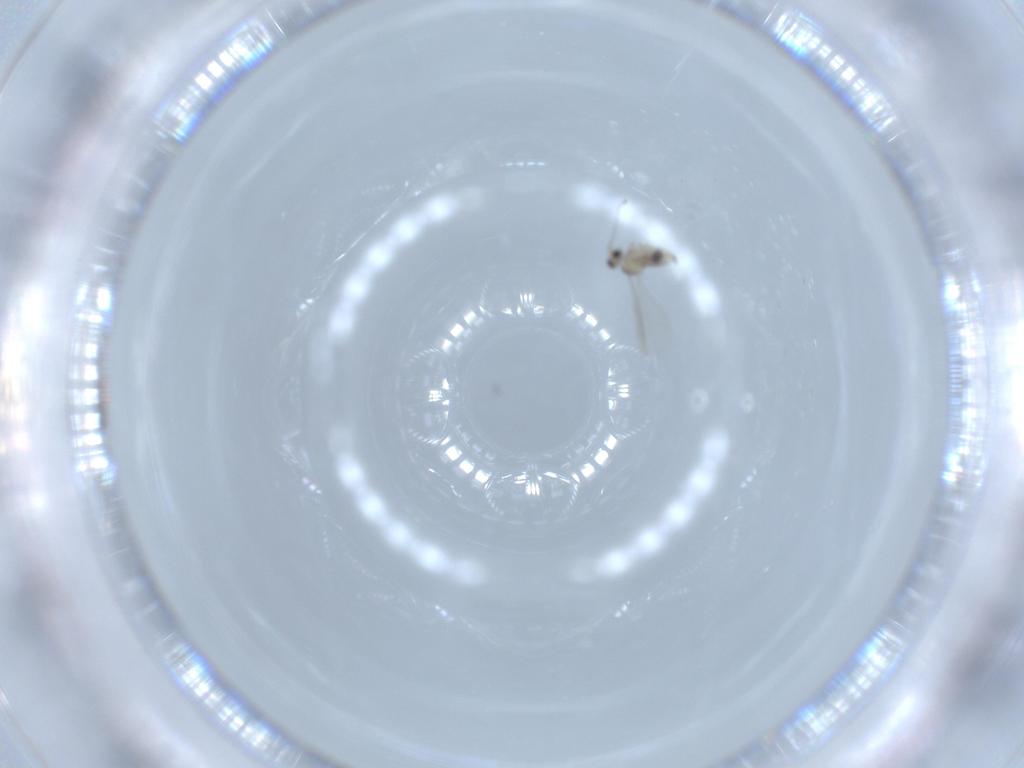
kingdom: Animalia
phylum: Arthropoda
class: Insecta
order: Diptera
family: Cecidomyiidae
